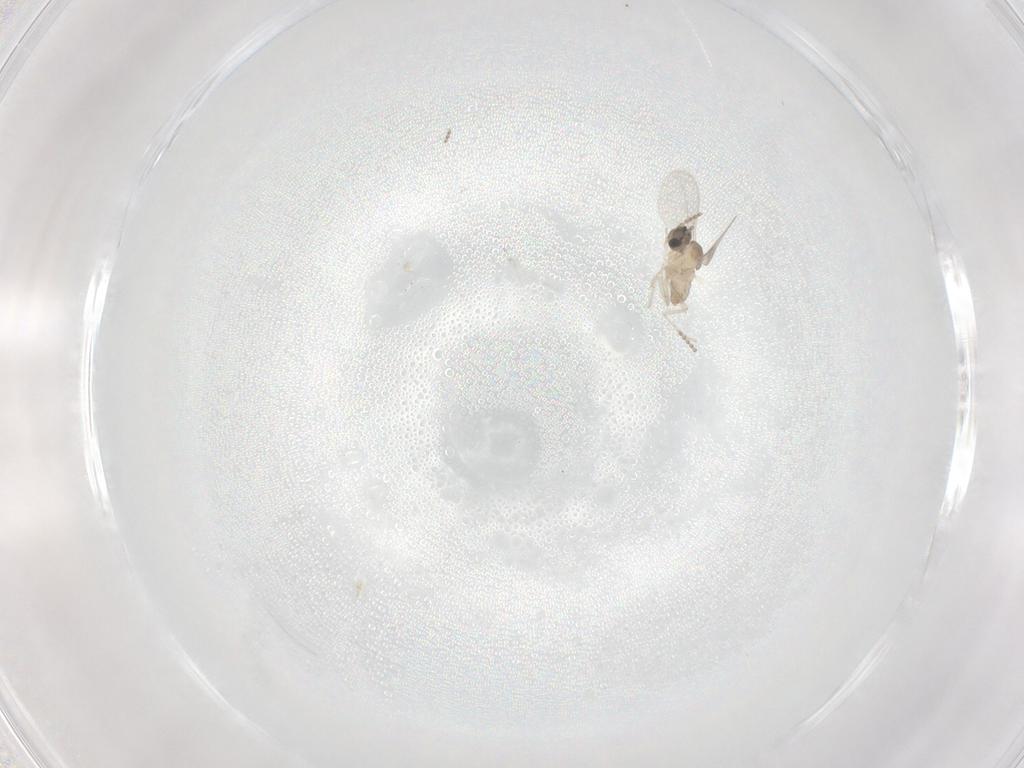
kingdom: Animalia
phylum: Arthropoda
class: Insecta
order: Diptera
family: Cecidomyiidae
